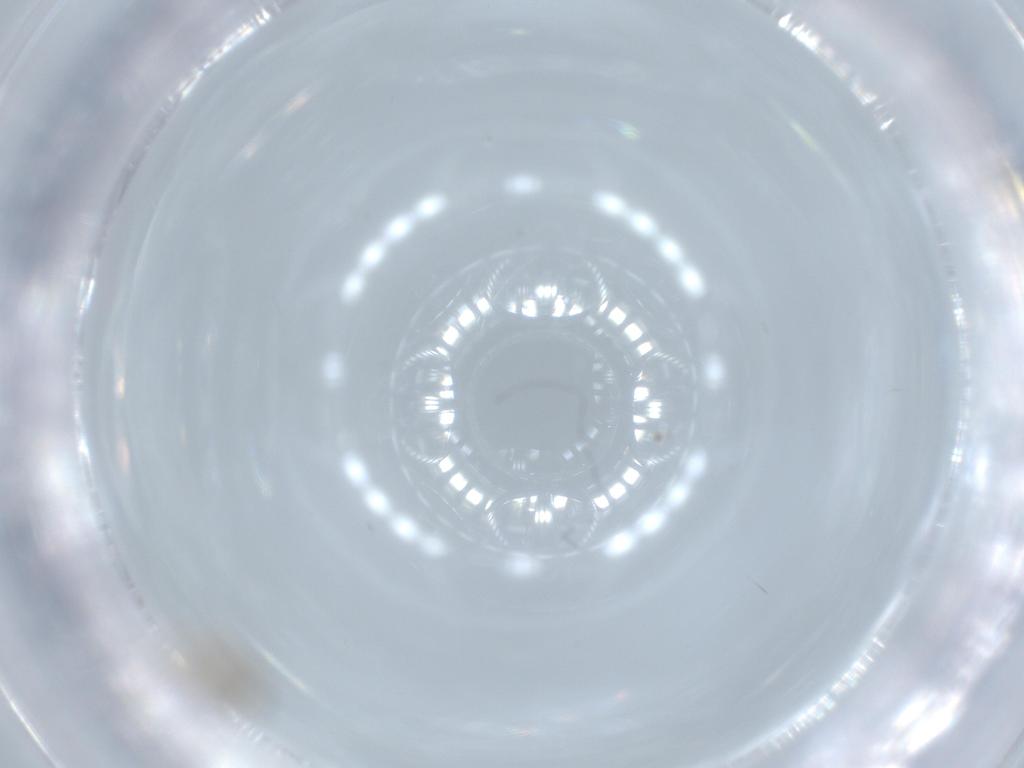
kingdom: Animalia
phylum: Arthropoda
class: Insecta
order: Coleoptera
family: Chrysomelidae
